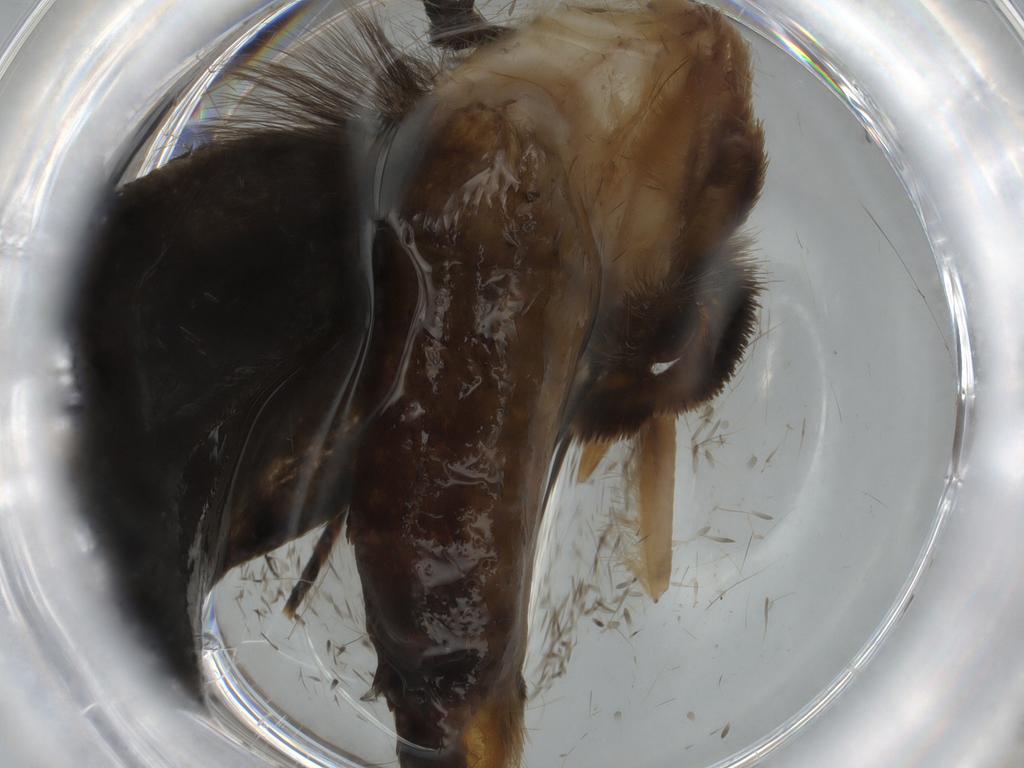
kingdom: Animalia
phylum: Arthropoda
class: Insecta
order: Lepidoptera
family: Tineidae
